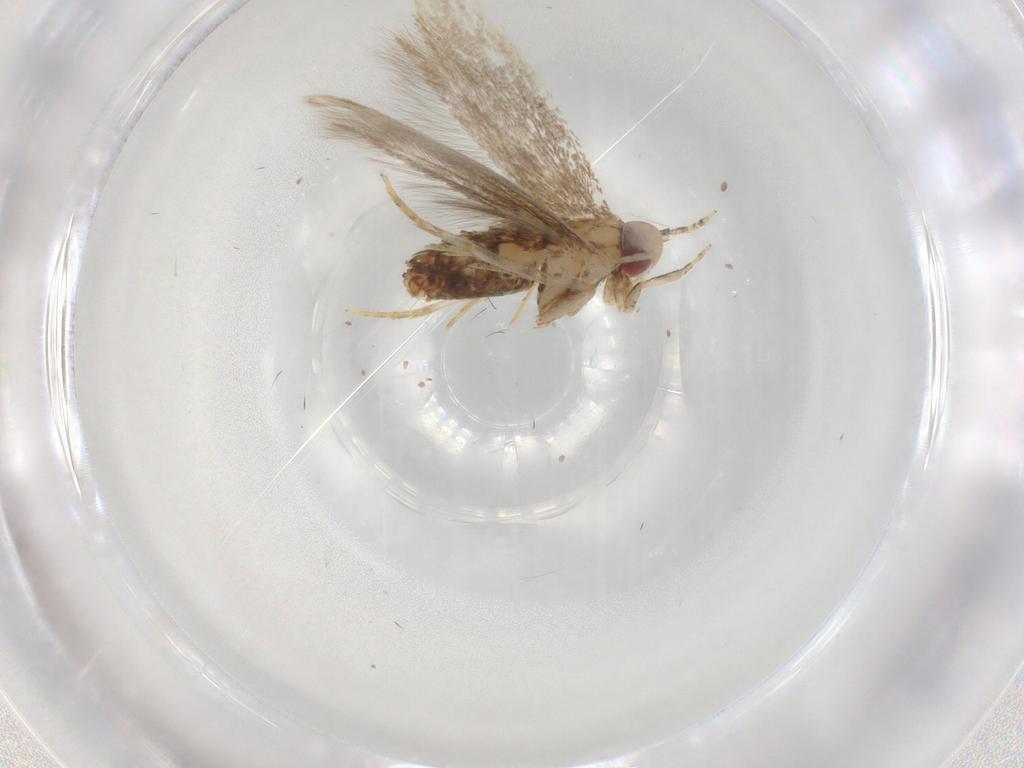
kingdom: Animalia
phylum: Arthropoda
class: Insecta
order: Lepidoptera
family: Cosmopterigidae
